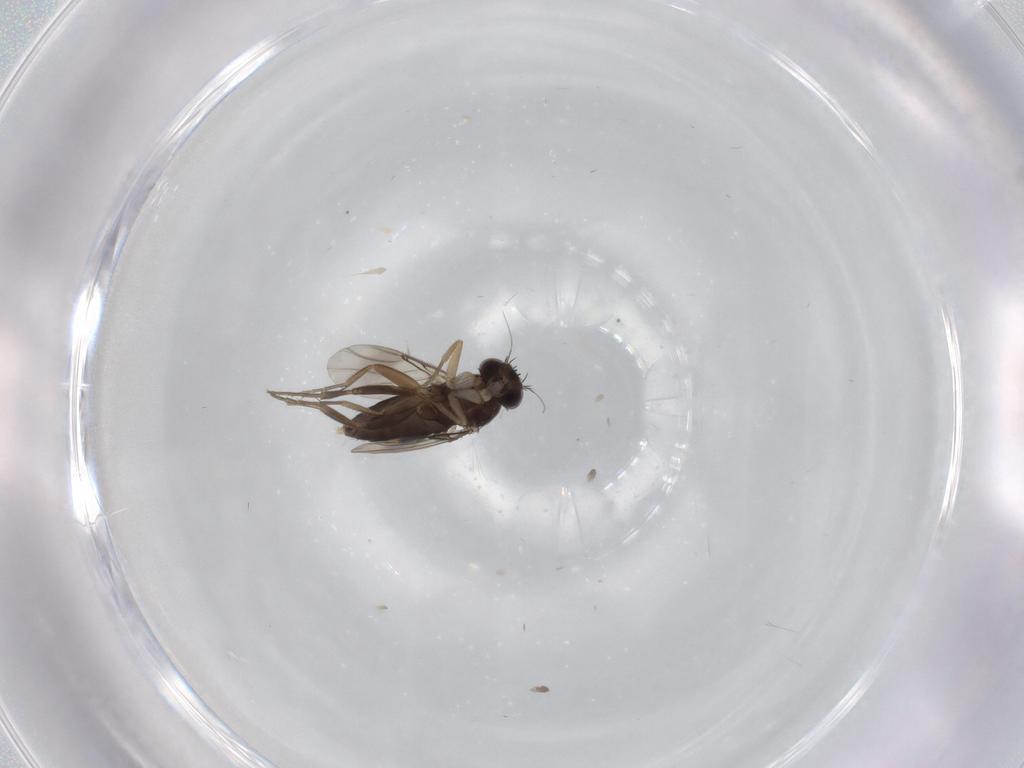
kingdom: Animalia
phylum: Arthropoda
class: Insecta
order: Diptera
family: Phoridae
